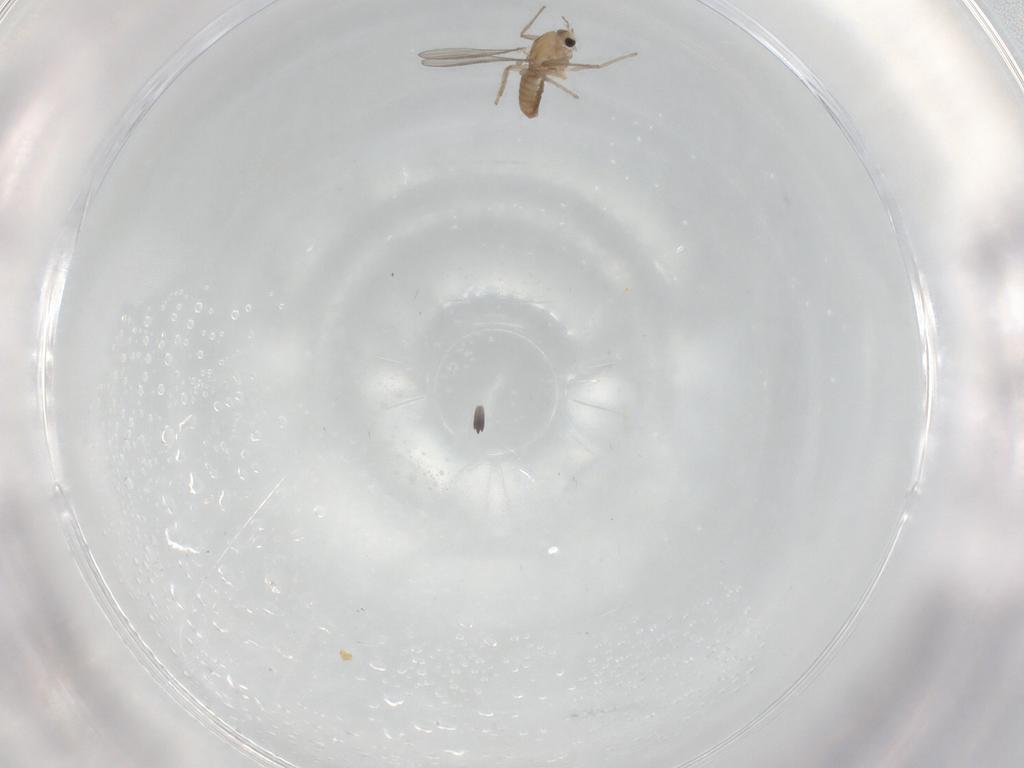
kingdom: Animalia
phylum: Arthropoda
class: Insecta
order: Diptera
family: Chironomidae
